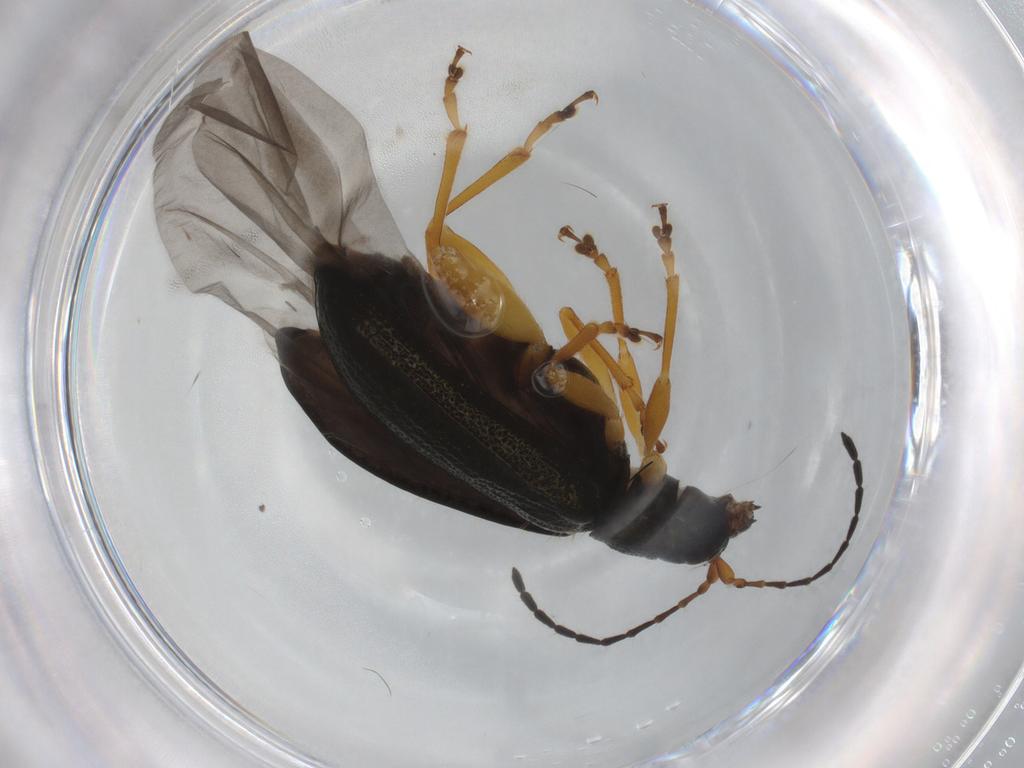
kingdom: Animalia
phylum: Arthropoda
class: Insecta
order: Coleoptera
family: Chrysomelidae
